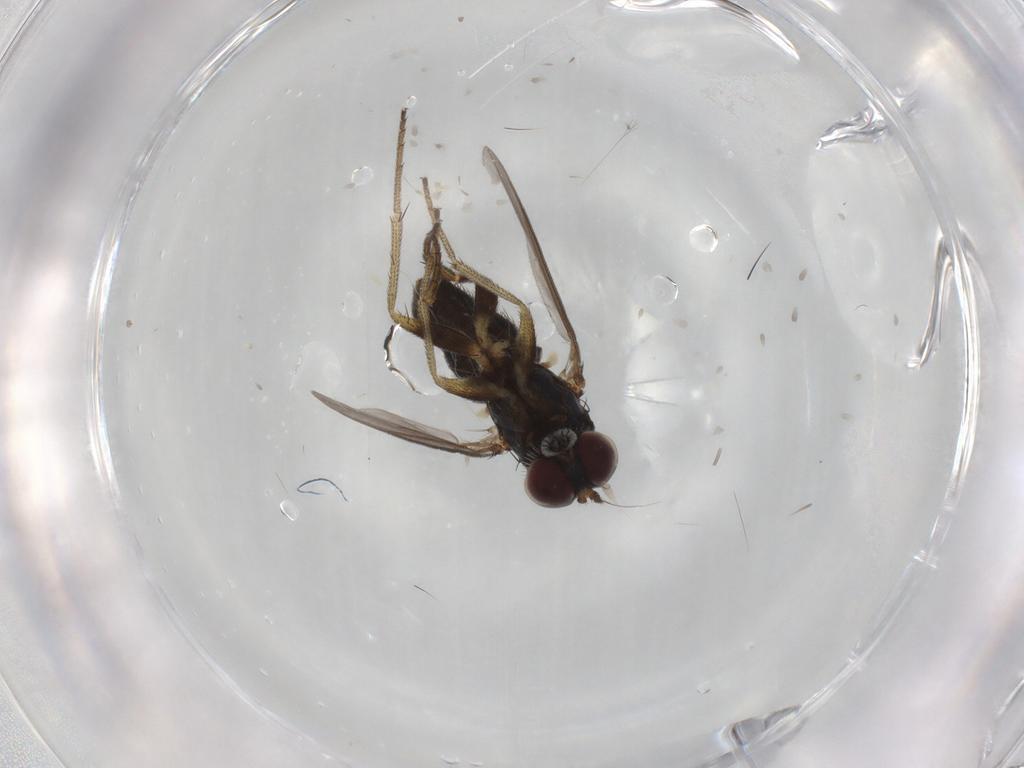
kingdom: Animalia
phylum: Arthropoda
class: Insecta
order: Diptera
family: Dolichopodidae
